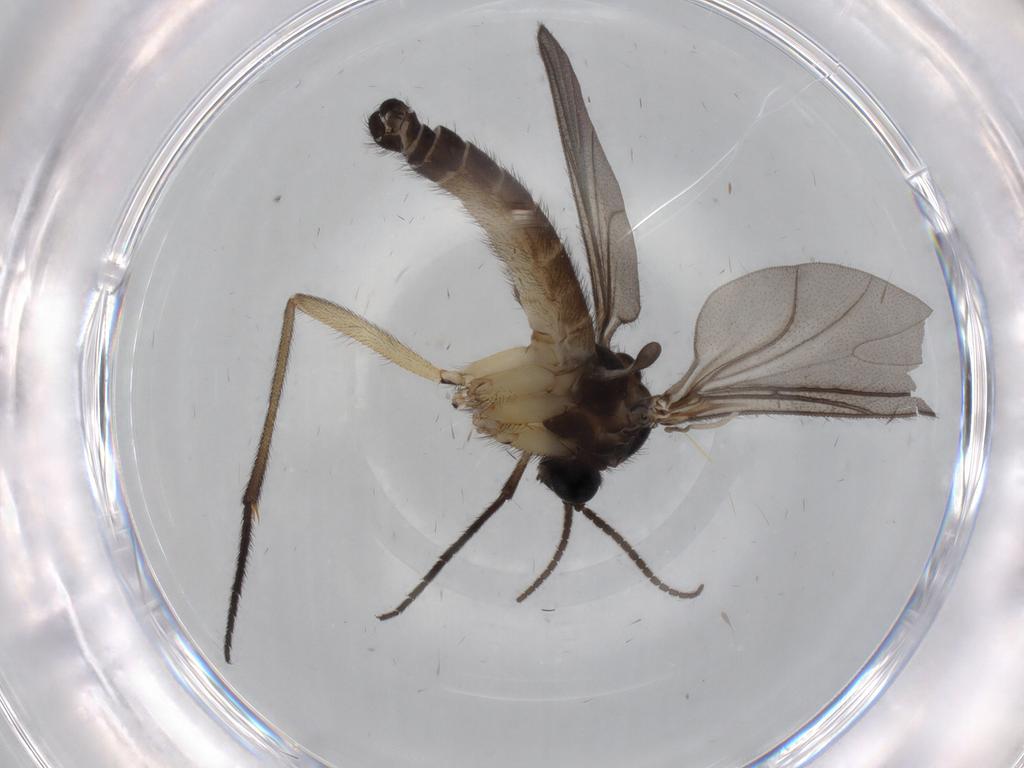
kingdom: Animalia
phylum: Arthropoda
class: Insecta
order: Diptera
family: Sciaridae
